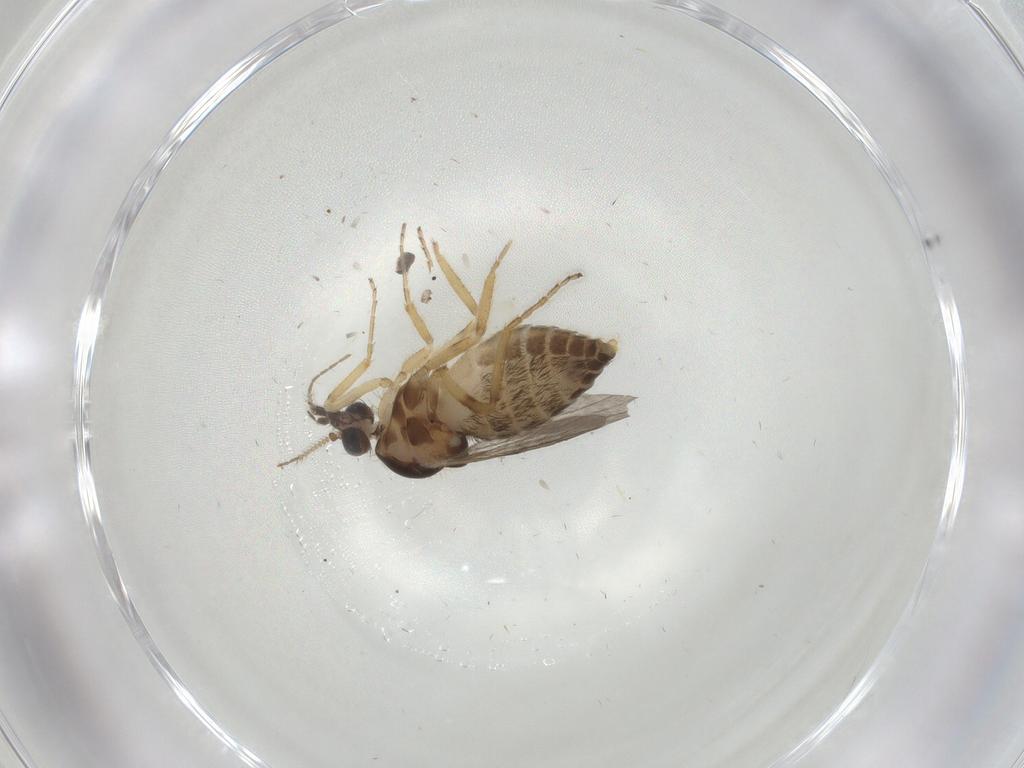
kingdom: Animalia
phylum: Arthropoda
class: Insecta
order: Diptera
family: Ceratopogonidae
